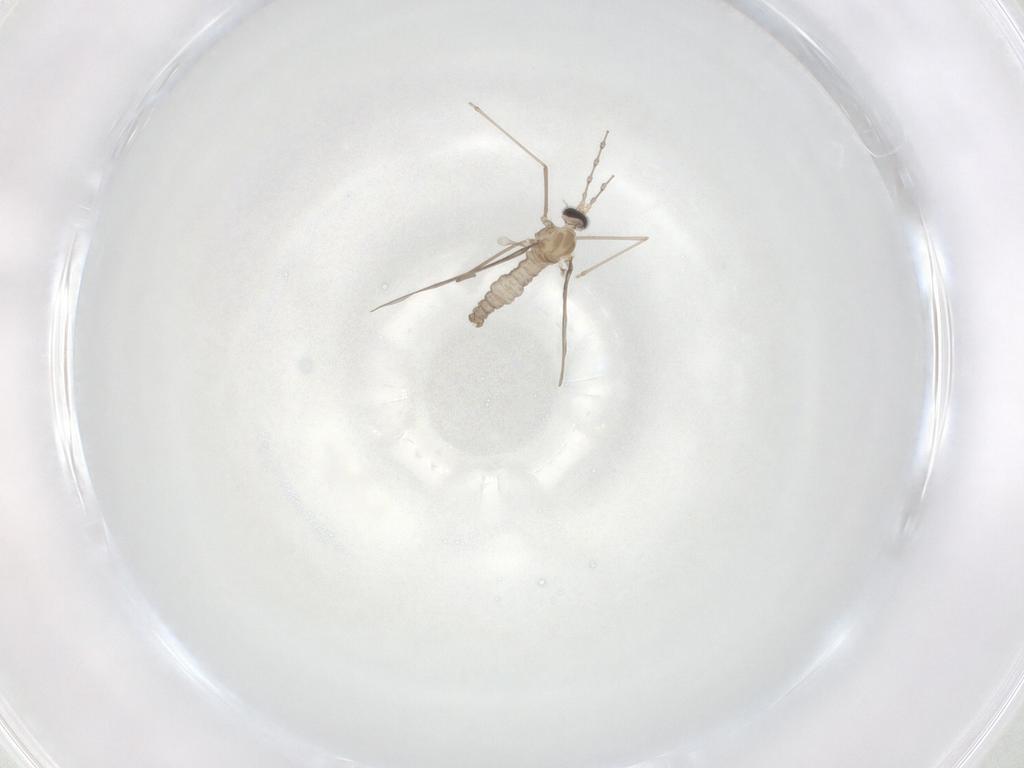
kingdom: Animalia
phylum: Arthropoda
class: Insecta
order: Diptera
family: Cecidomyiidae
